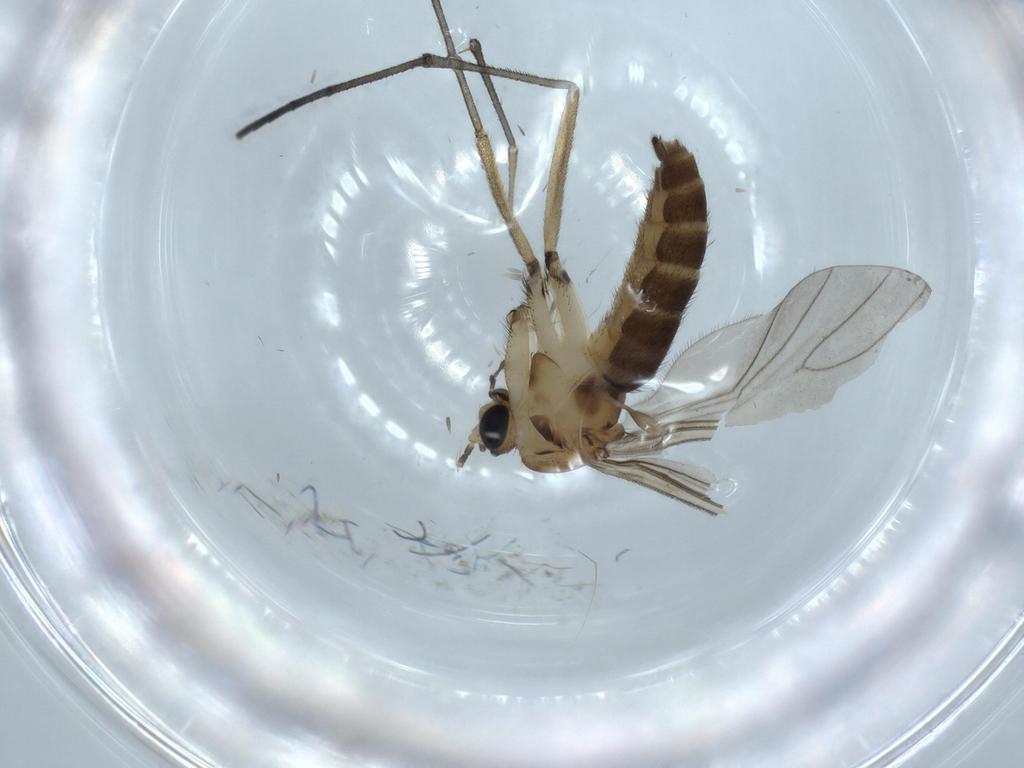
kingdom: Animalia
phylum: Arthropoda
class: Insecta
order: Diptera
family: Sciaridae
